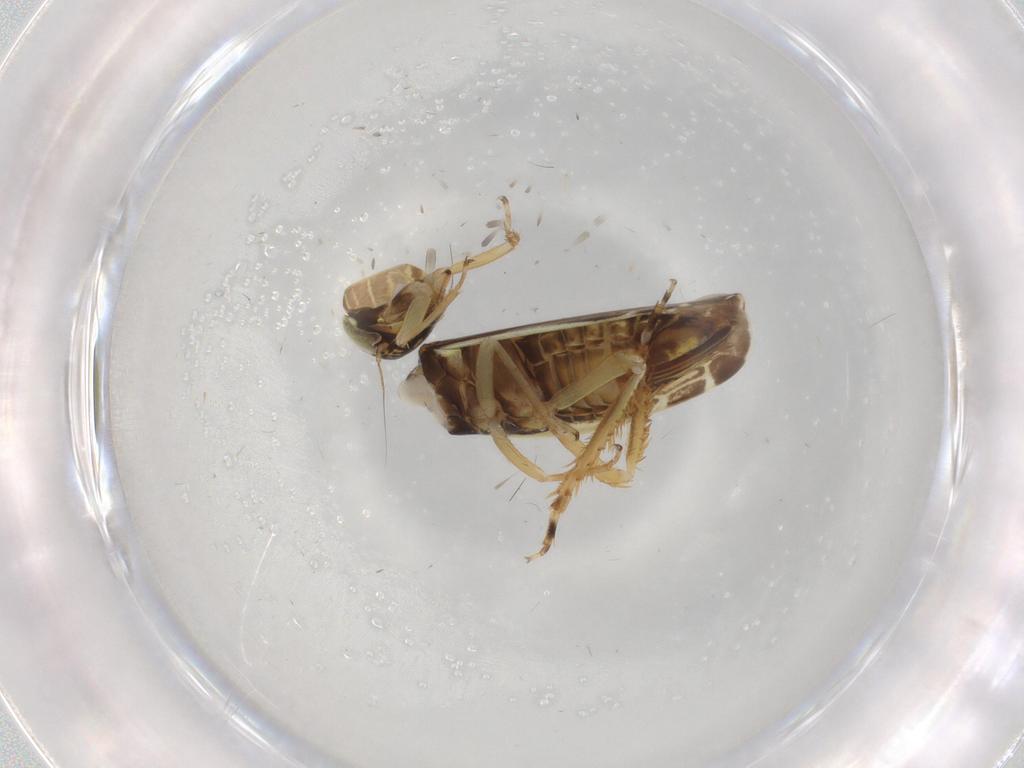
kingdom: Animalia
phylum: Arthropoda
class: Insecta
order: Hemiptera
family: Cicadellidae
